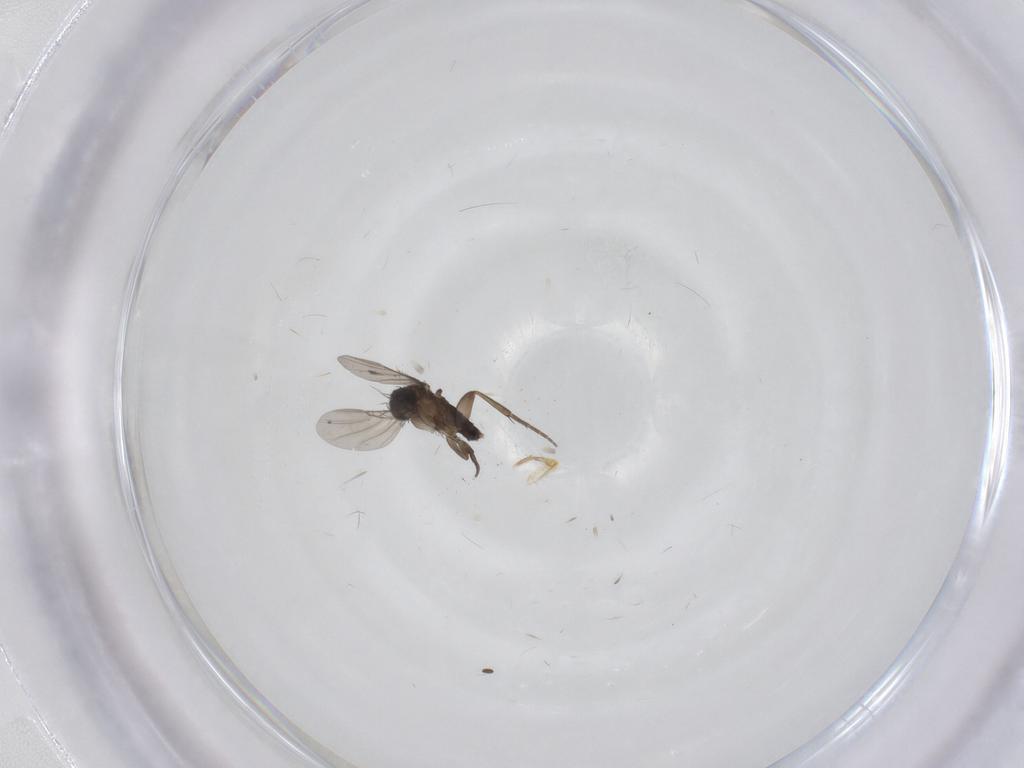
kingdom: Animalia
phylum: Arthropoda
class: Insecta
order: Diptera
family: Phoridae
